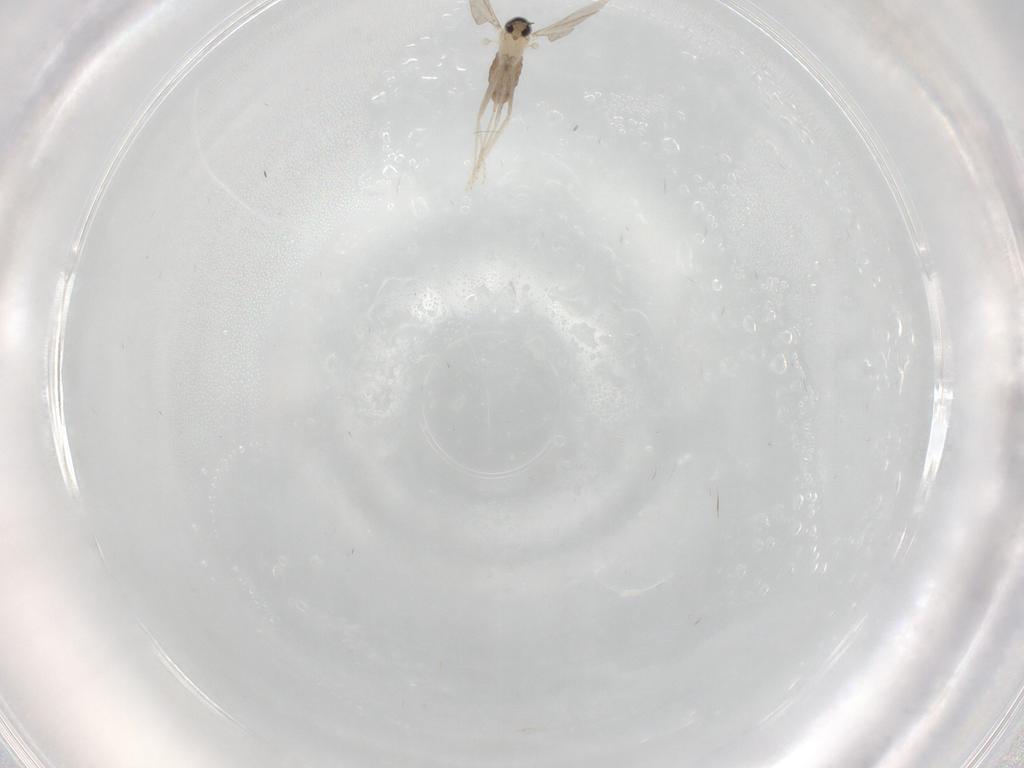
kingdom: Animalia
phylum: Arthropoda
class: Insecta
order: Diptera
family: Cecidomyiidae
